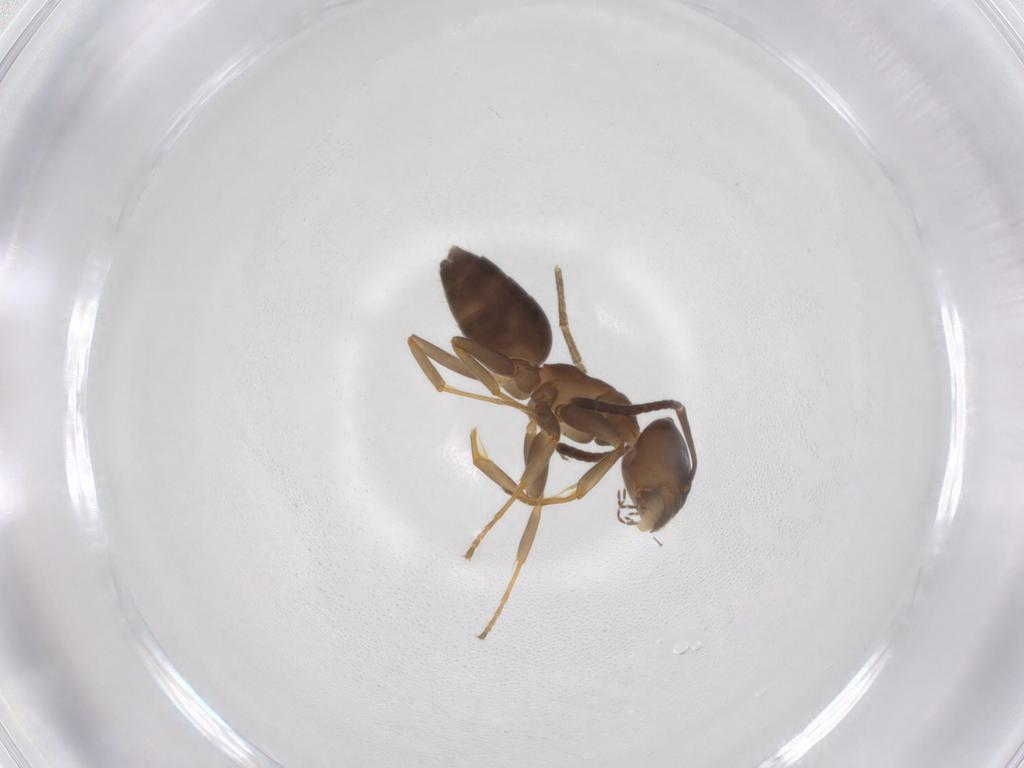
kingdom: Animalia
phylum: Arthropoda
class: Insecta
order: Hymenoptera
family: Formicidae
